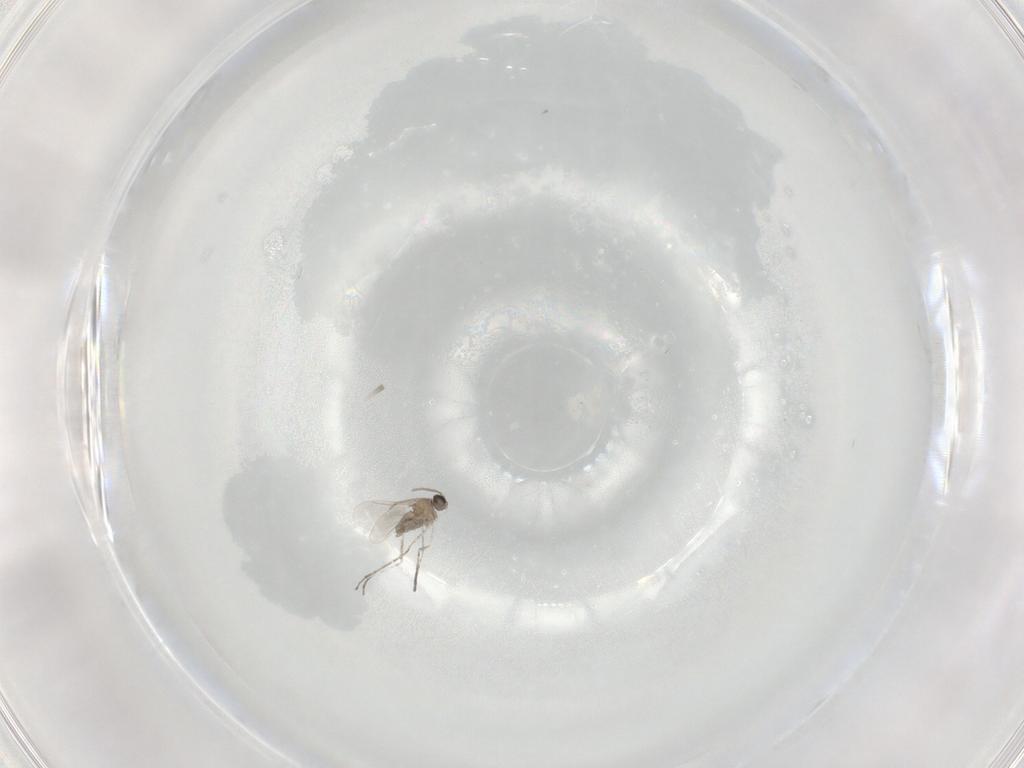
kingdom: Animalia
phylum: Arthropoda
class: Insecta
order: Diptera
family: Cecidomyiidae
